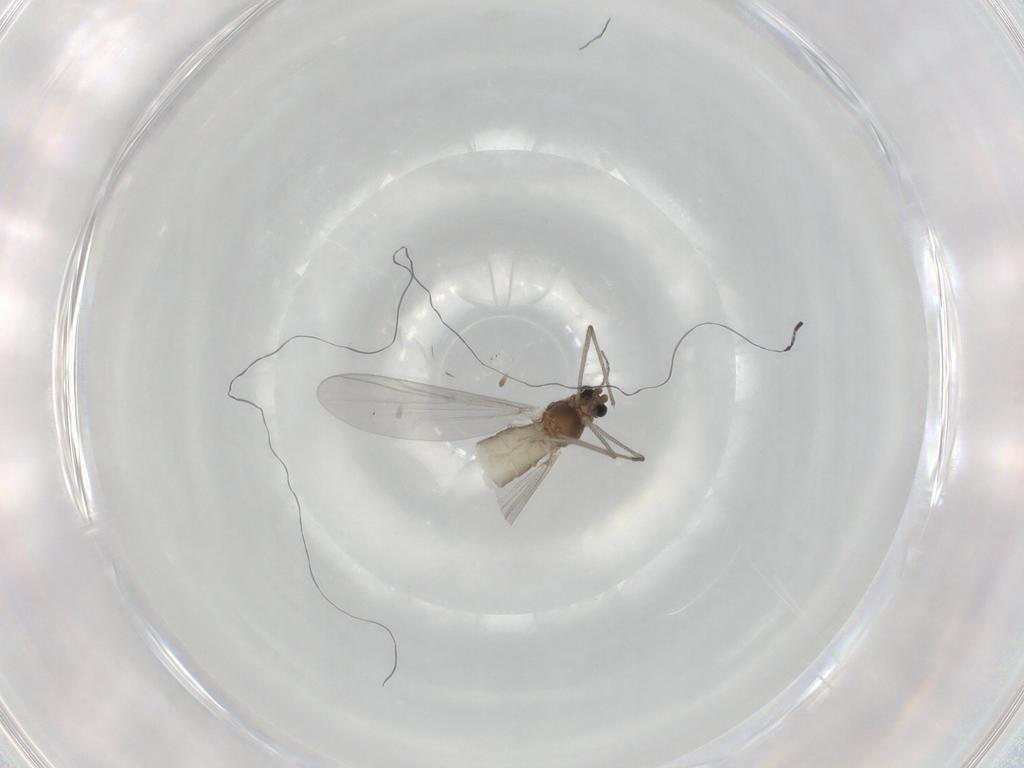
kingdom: Animalia
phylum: Arthropoda
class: Insecta
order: Diptera
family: Chironomidae
